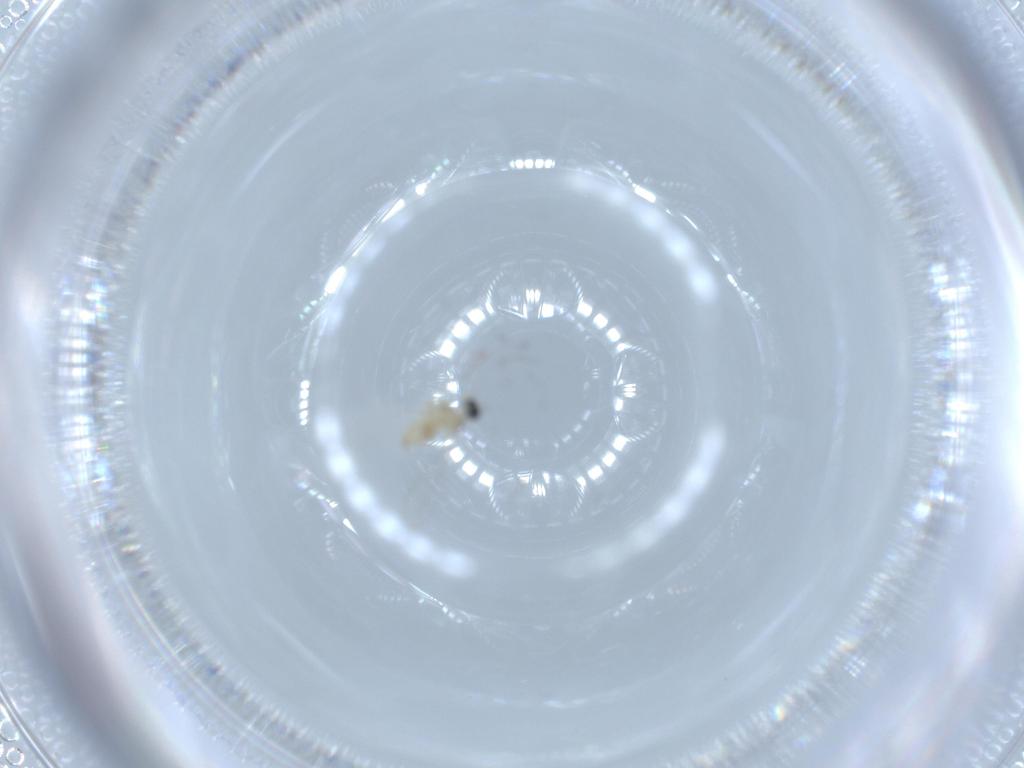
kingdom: Animalia
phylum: Arthropoda
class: Insecta
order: Diptera
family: Cecidomyiidae
